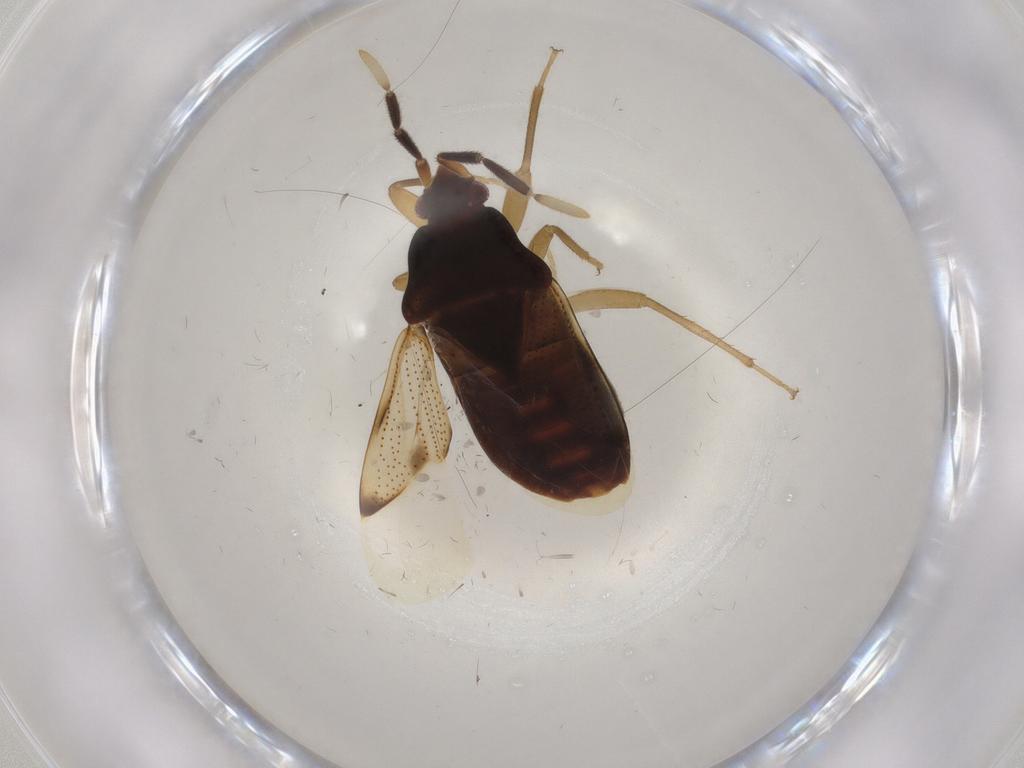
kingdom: Animalia
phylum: Arthropoda
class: Insecta
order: Hemiptera
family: Rhyparochromidae
